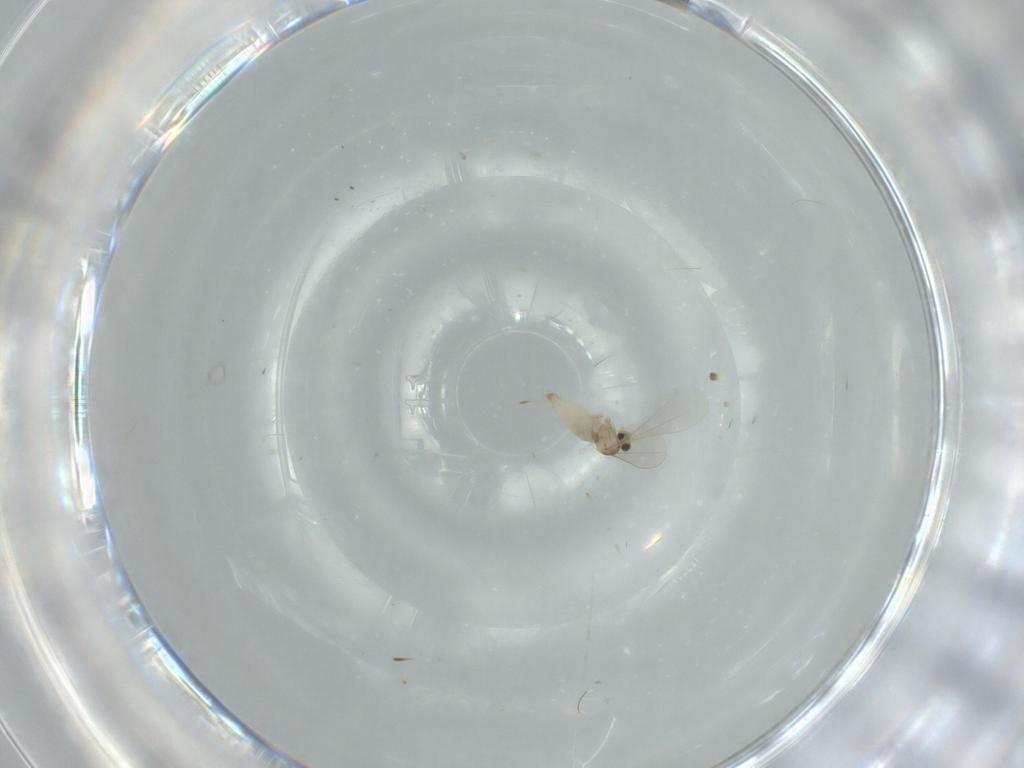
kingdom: Animalia
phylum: Arthropoda
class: Insecta
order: Diptera
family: Cecidomyiidae
